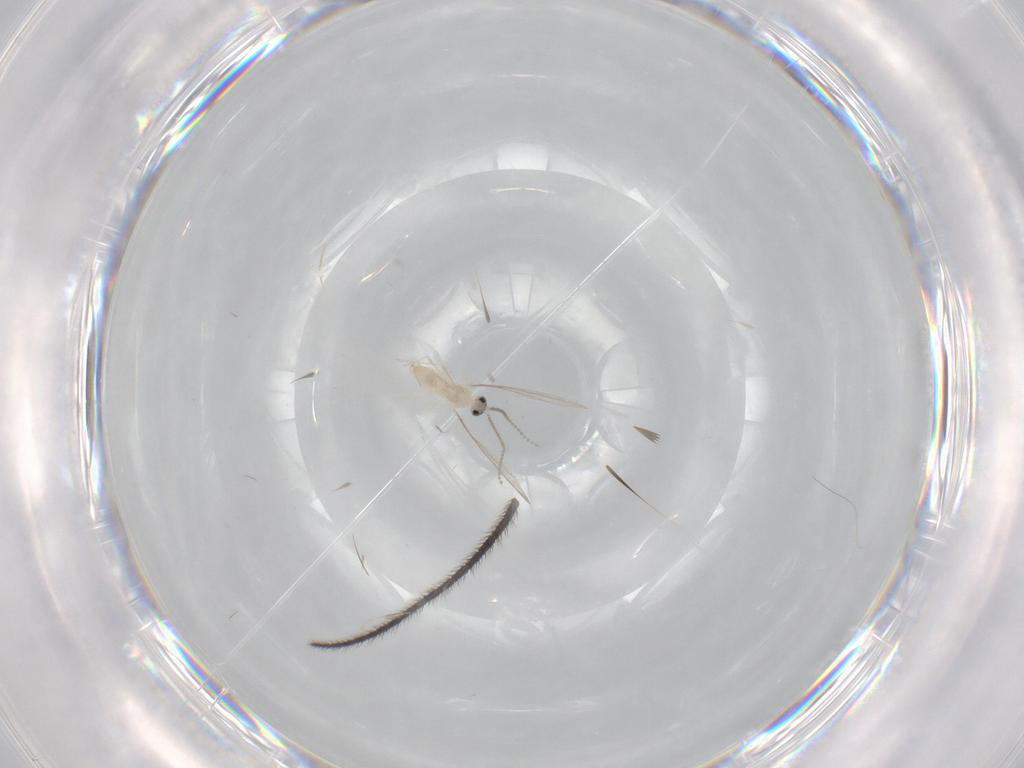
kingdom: Animalia
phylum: Arthropoda
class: Insecta
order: Diptera
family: Cecidomyiidae
